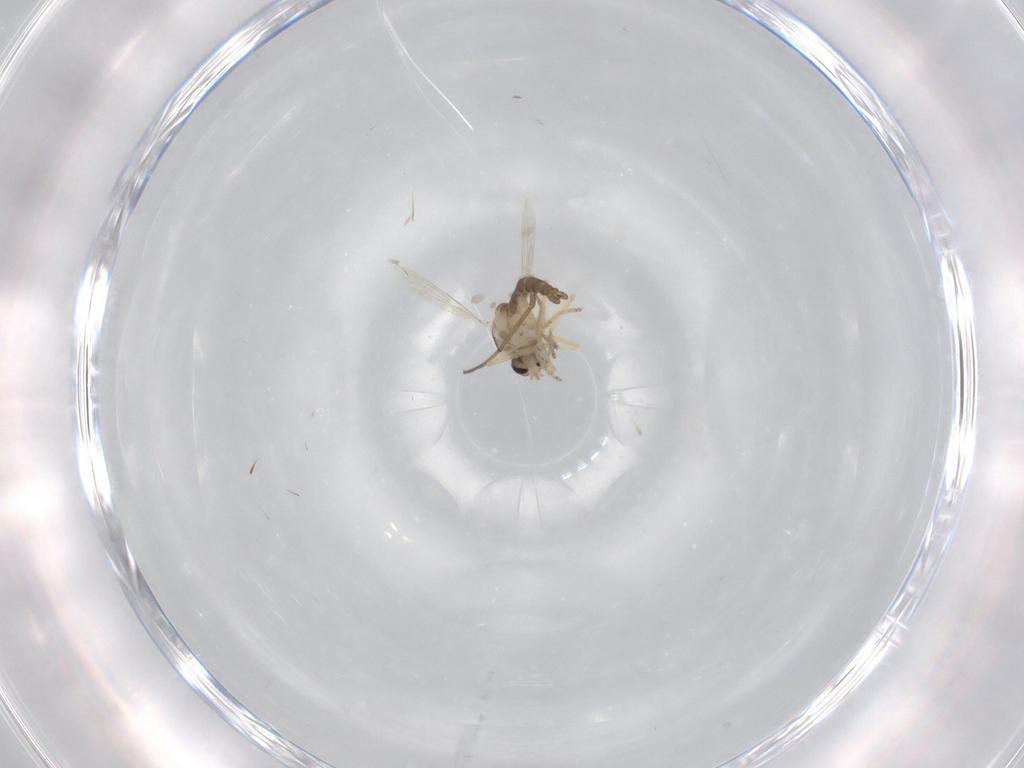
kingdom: Animalia
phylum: Arthropoda
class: Insecta
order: Diptera
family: Ceratopogonidae
